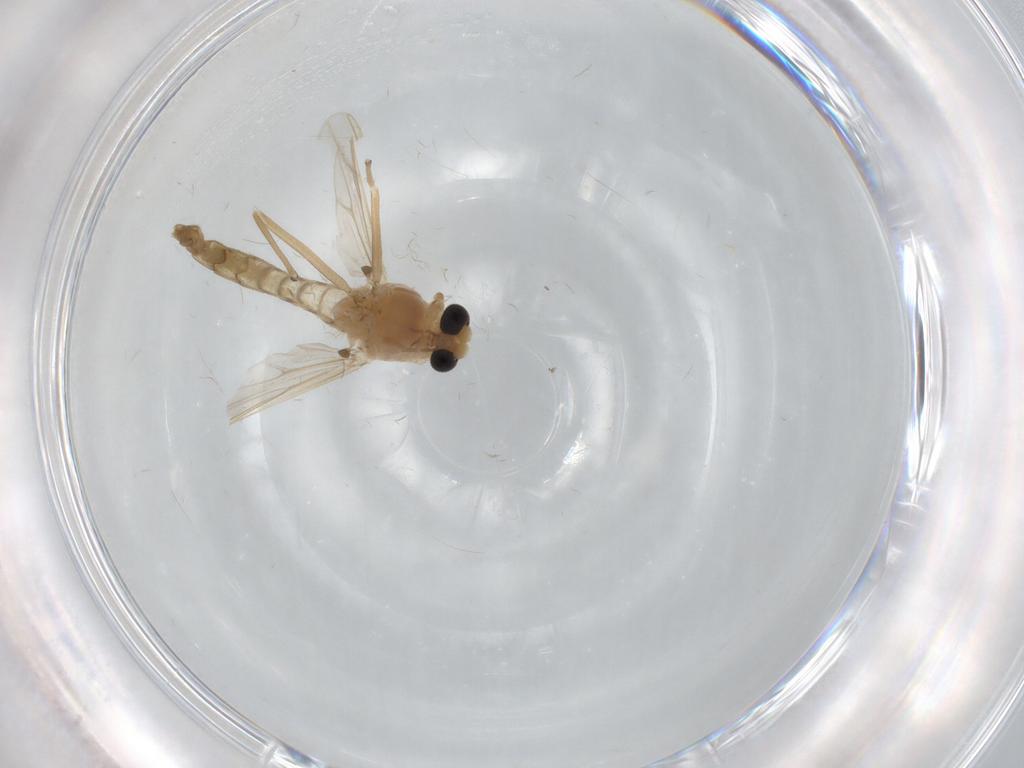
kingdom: Animalia
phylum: Arthropoda
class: Insecta
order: Diptera
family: Chironomidae
